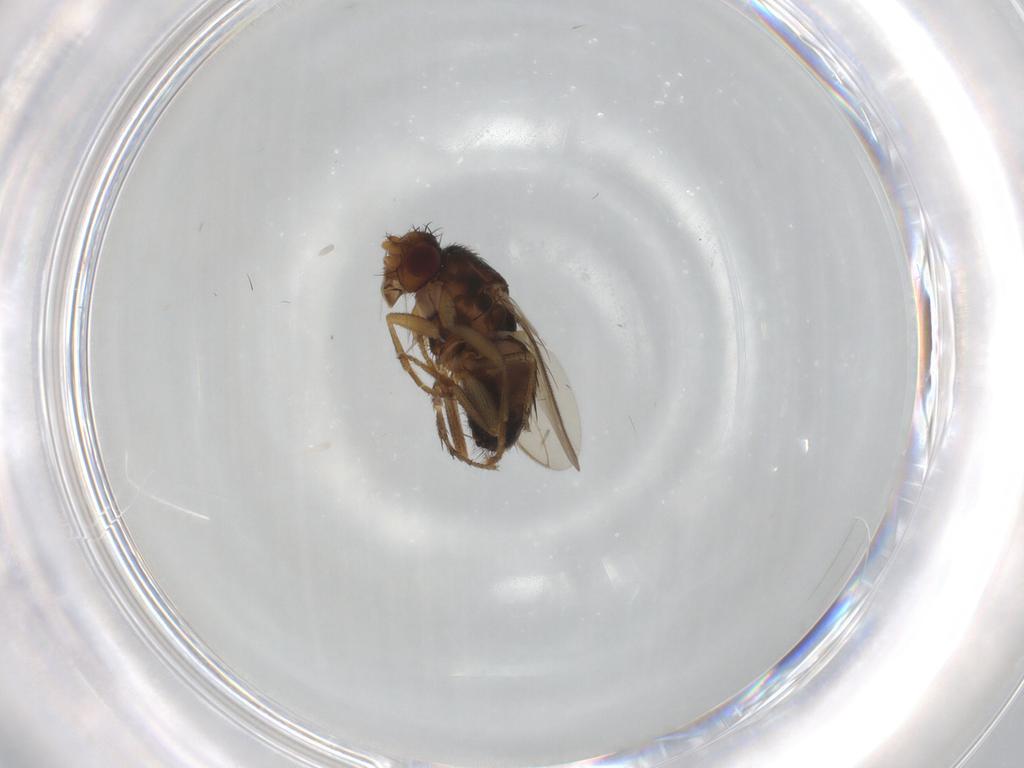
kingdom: Animalia
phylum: Arthropoda
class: Insecta
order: Diptera
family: Sphaeroceridae
